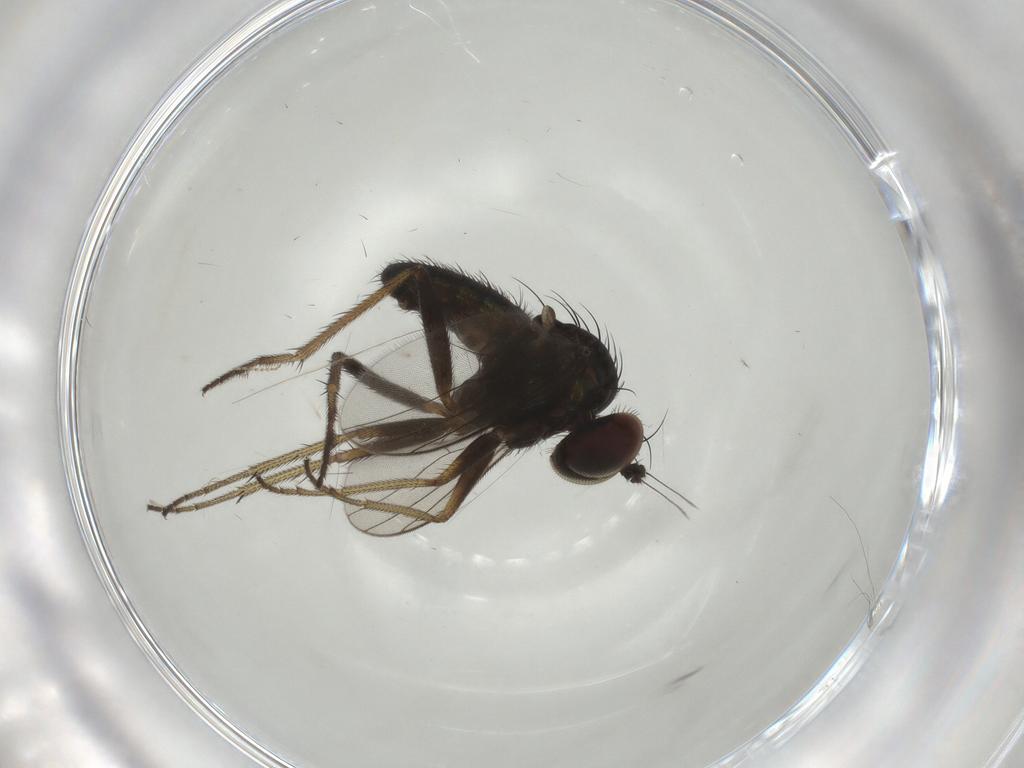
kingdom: Animalia
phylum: Arthropoda
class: Insecta
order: Diptera
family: Dolichopodidae
